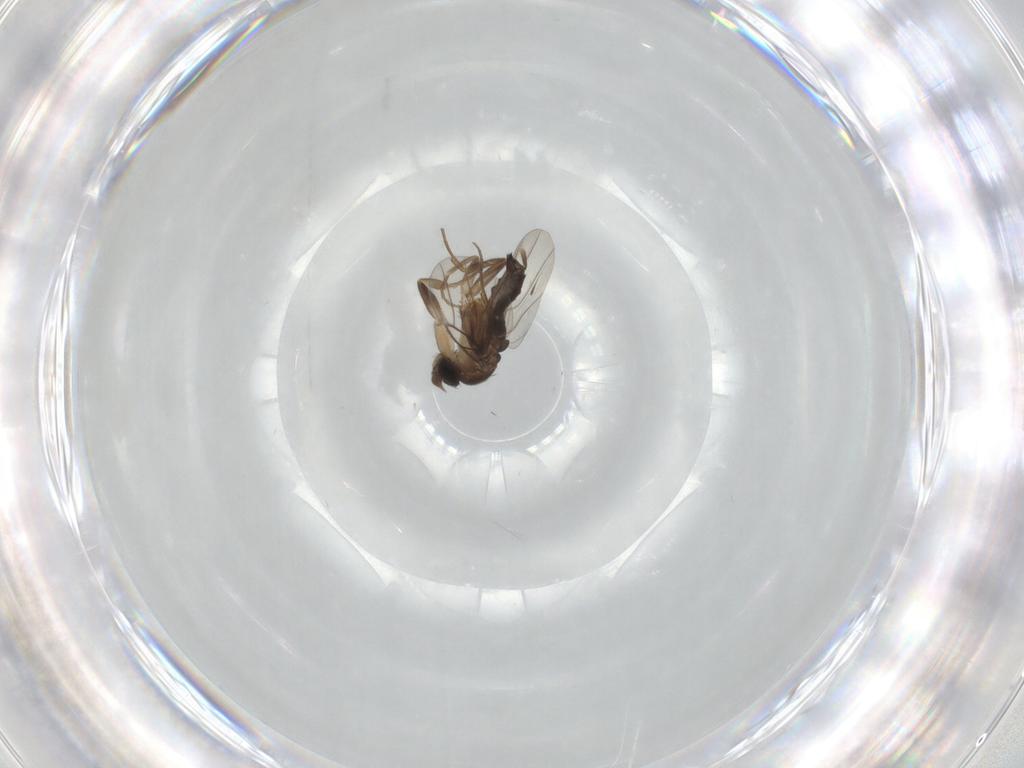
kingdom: Animalia
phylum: Arthropoda
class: Insecta
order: Diptera
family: Phoridae
